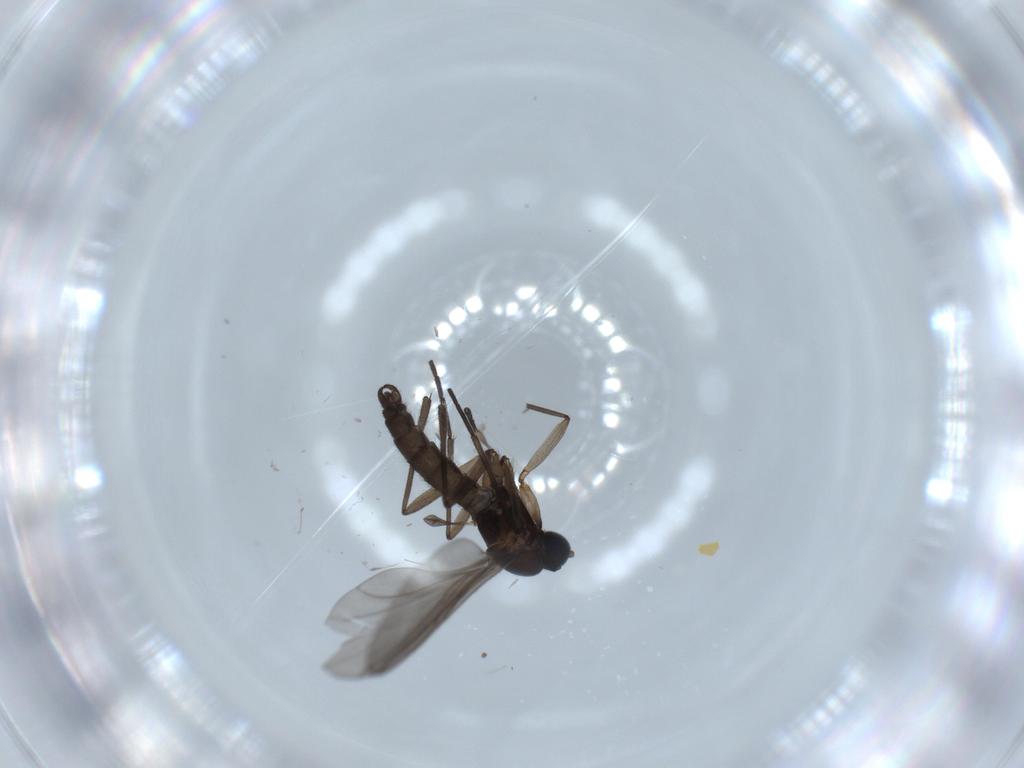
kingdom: Animalia
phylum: Arthropoda
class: Insecta
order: Diptera
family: Sciaridae
